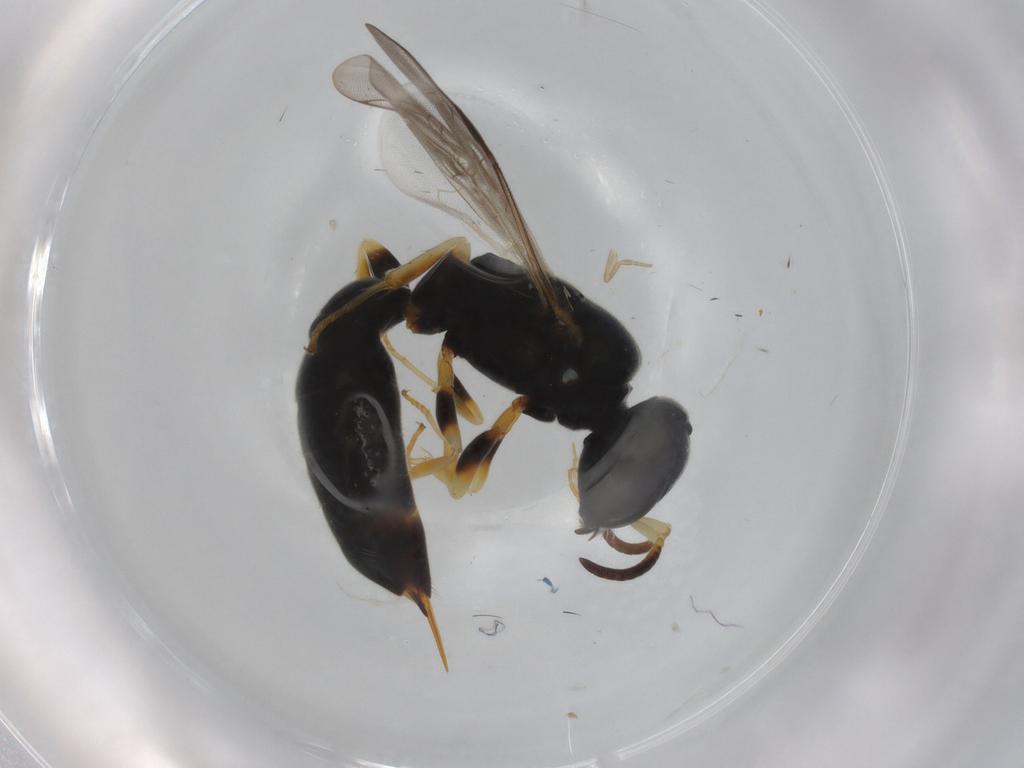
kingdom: Animalia
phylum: Arthropoda
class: Insecta
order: Hymenoptera
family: Pemphredonidae
